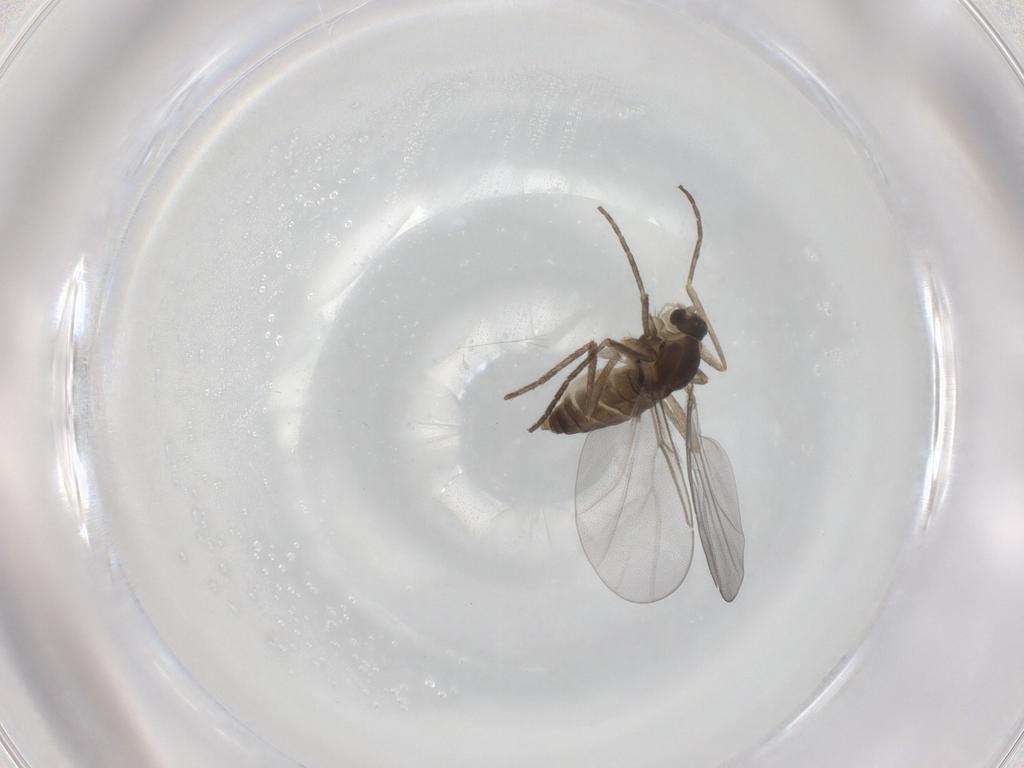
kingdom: Animalia
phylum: Arthropoda
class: Insecta
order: Diptera
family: Cecidomyiidae
